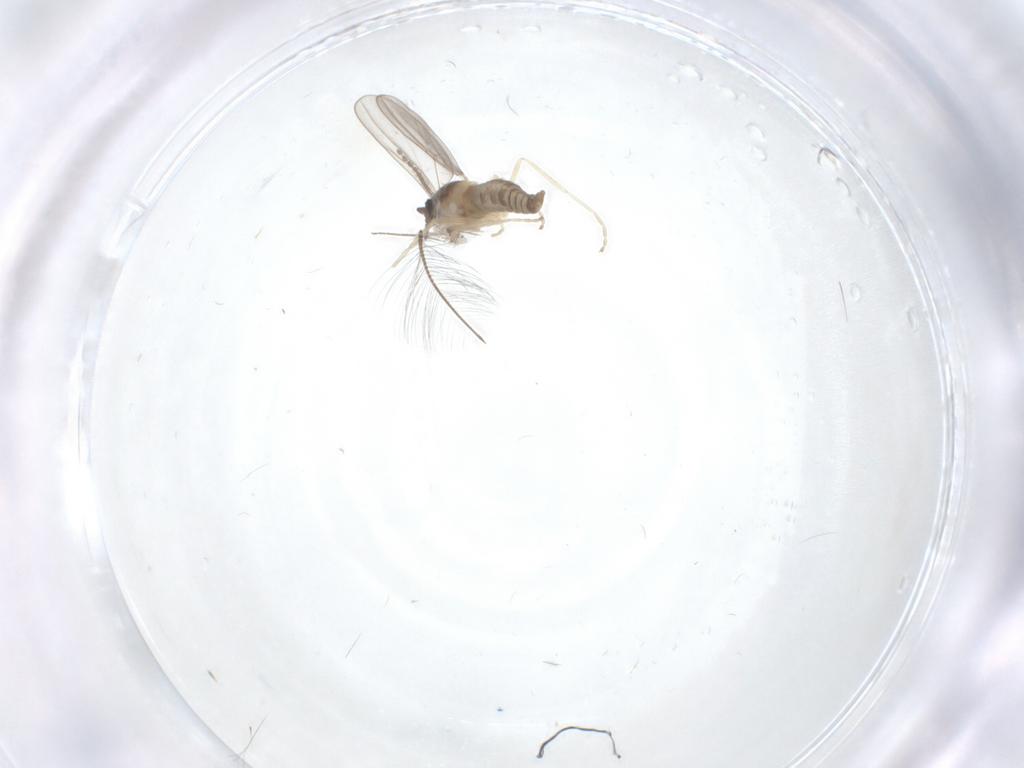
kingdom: Animalia
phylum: Arthropoda
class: Insecta
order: Diptera
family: Cecidomyiidae
